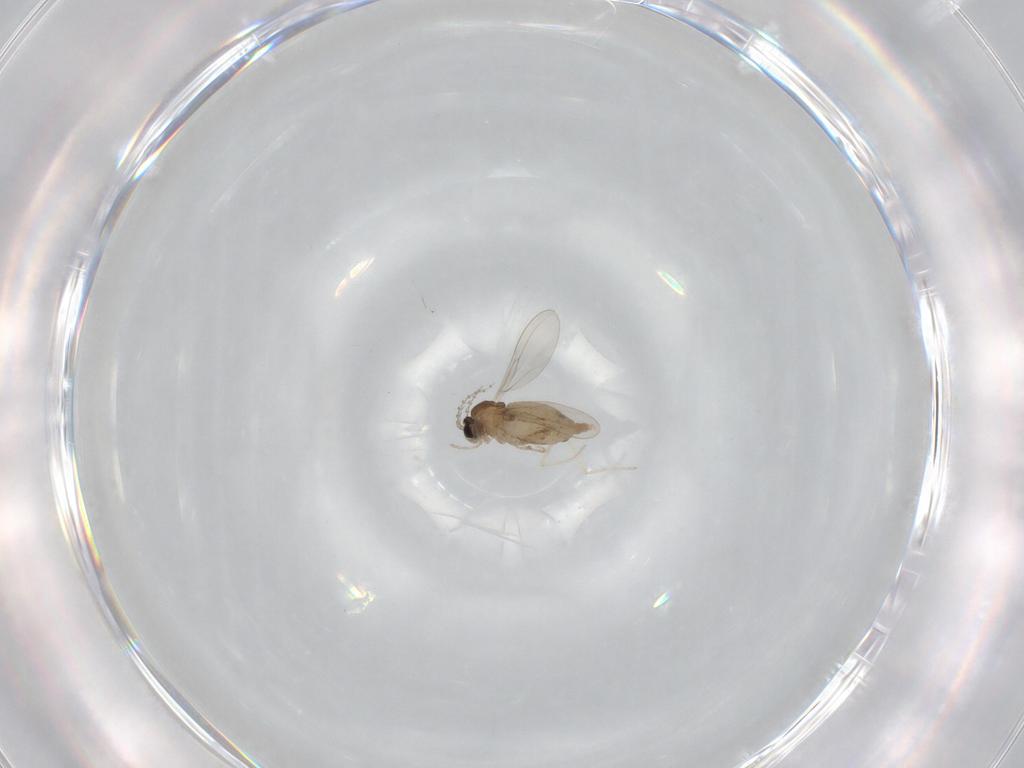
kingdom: Animalia
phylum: Arthropoda
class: Insecta
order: Diptera
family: Cecidomyiidae
